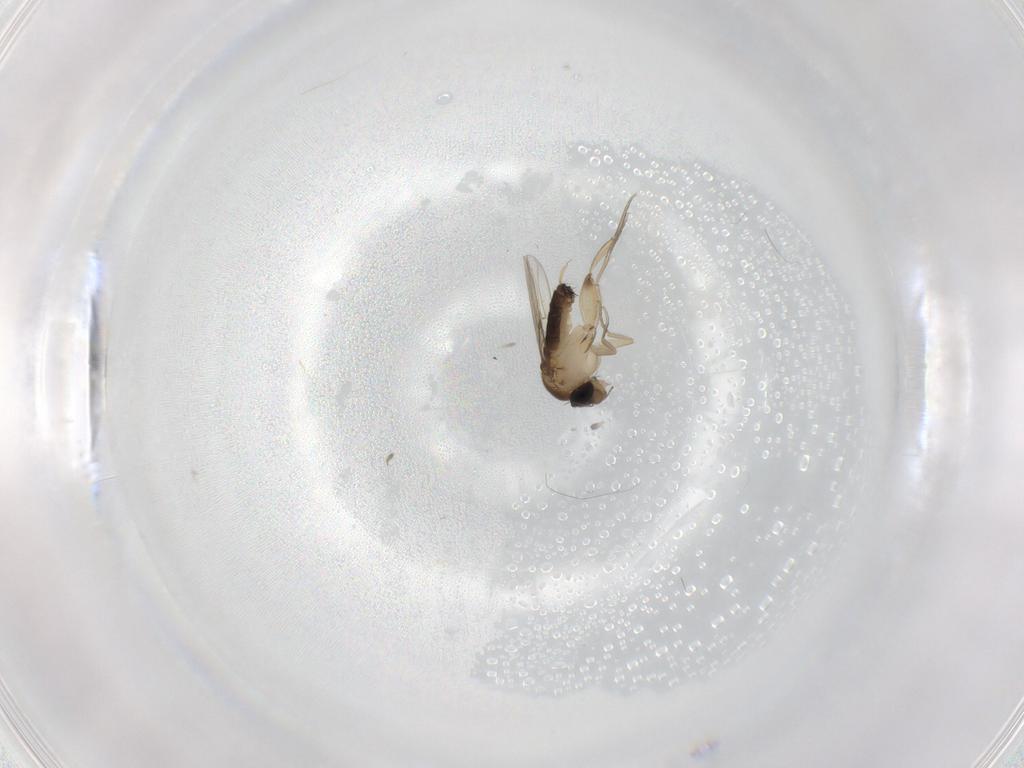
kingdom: Animalia
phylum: Arthropoda
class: Insecta
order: Diptera
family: Phoridae
